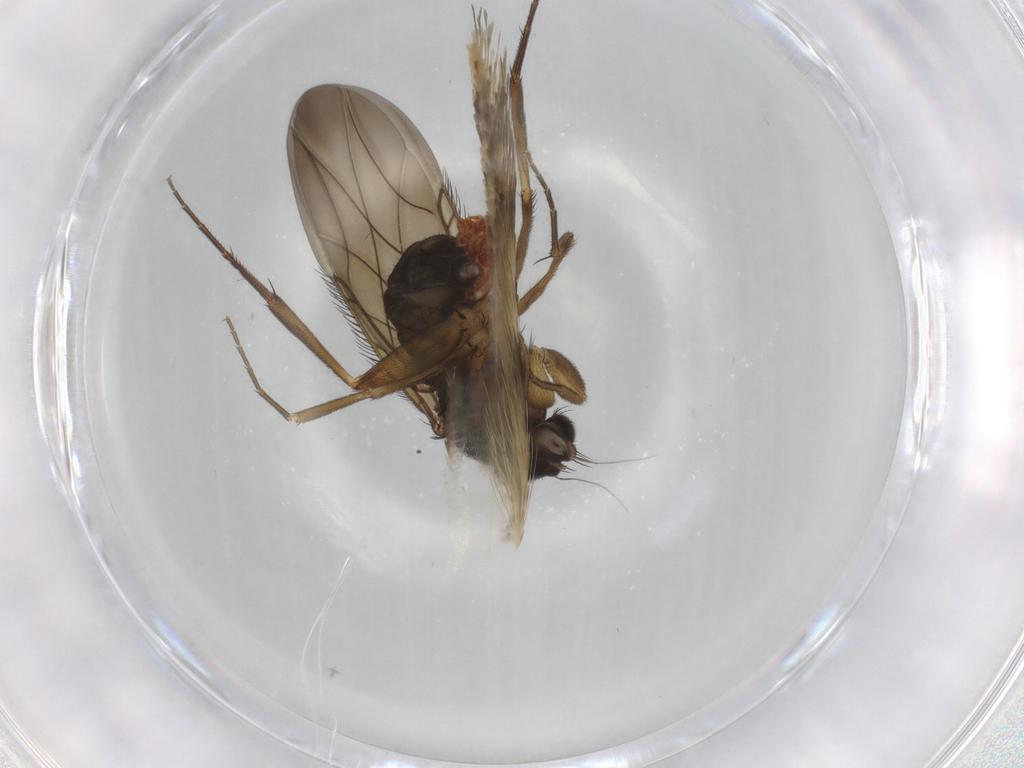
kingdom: Animalia
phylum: Arthropoda
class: Insecta
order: Diptera
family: Phoridae
